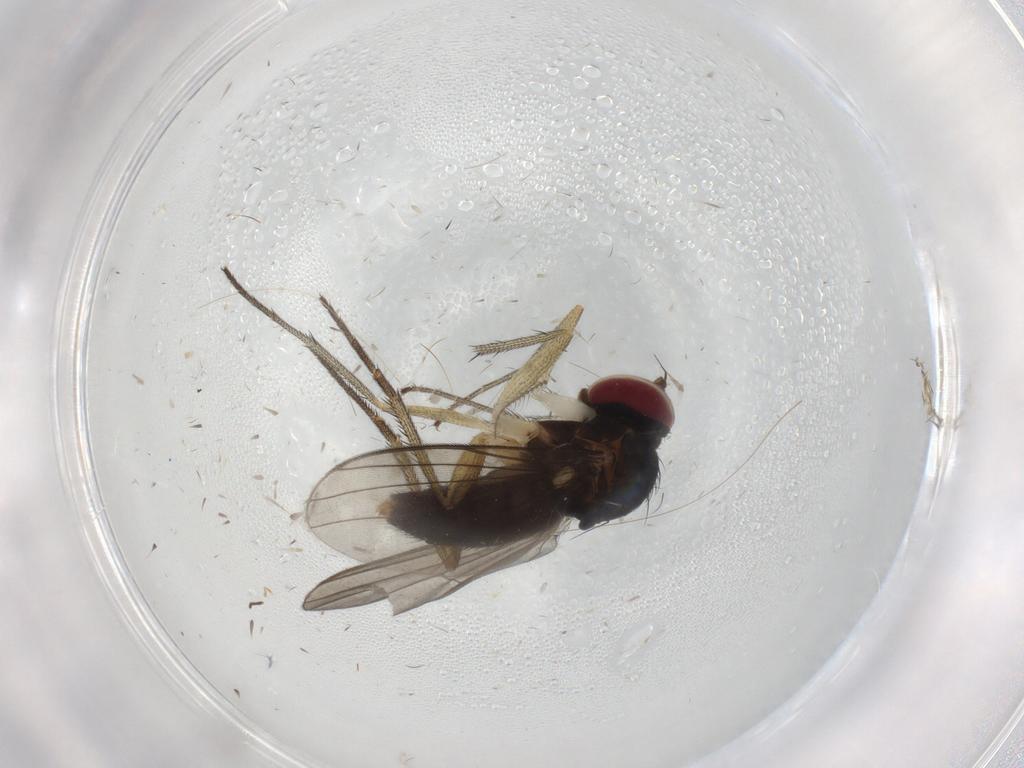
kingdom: Animalia
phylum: Arthropoda
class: Insecta
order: Diptera
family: Dolichopodidae
